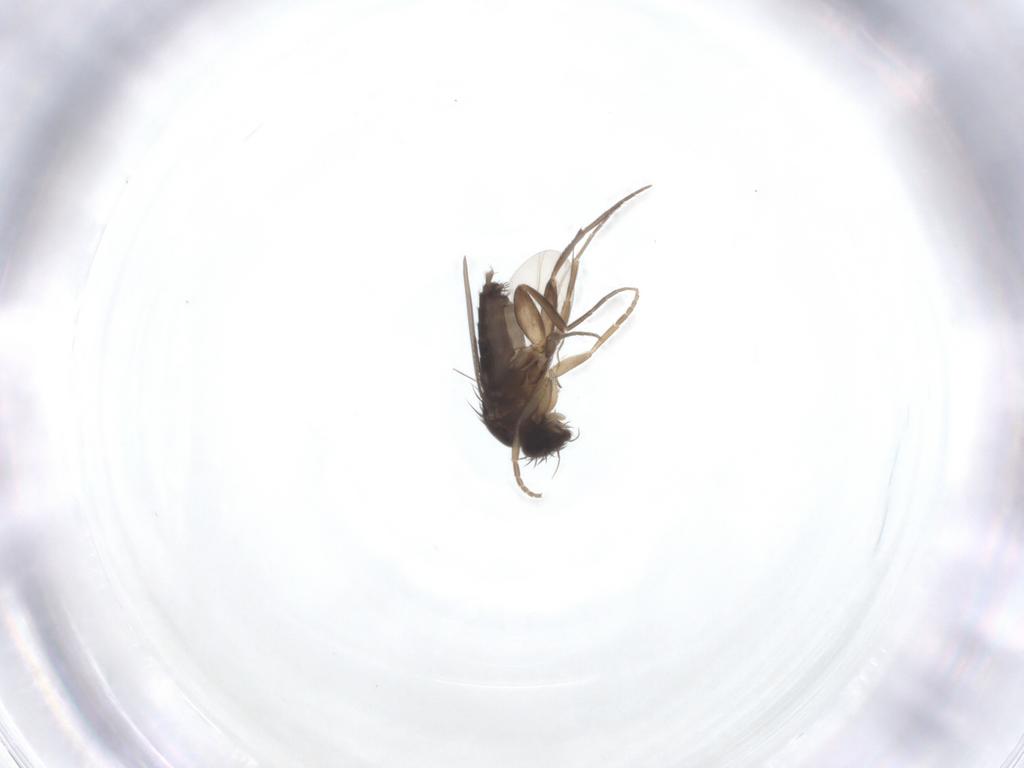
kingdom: Animalia
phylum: Arthropoda
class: Insecta
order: Diptera
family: Phoridae
